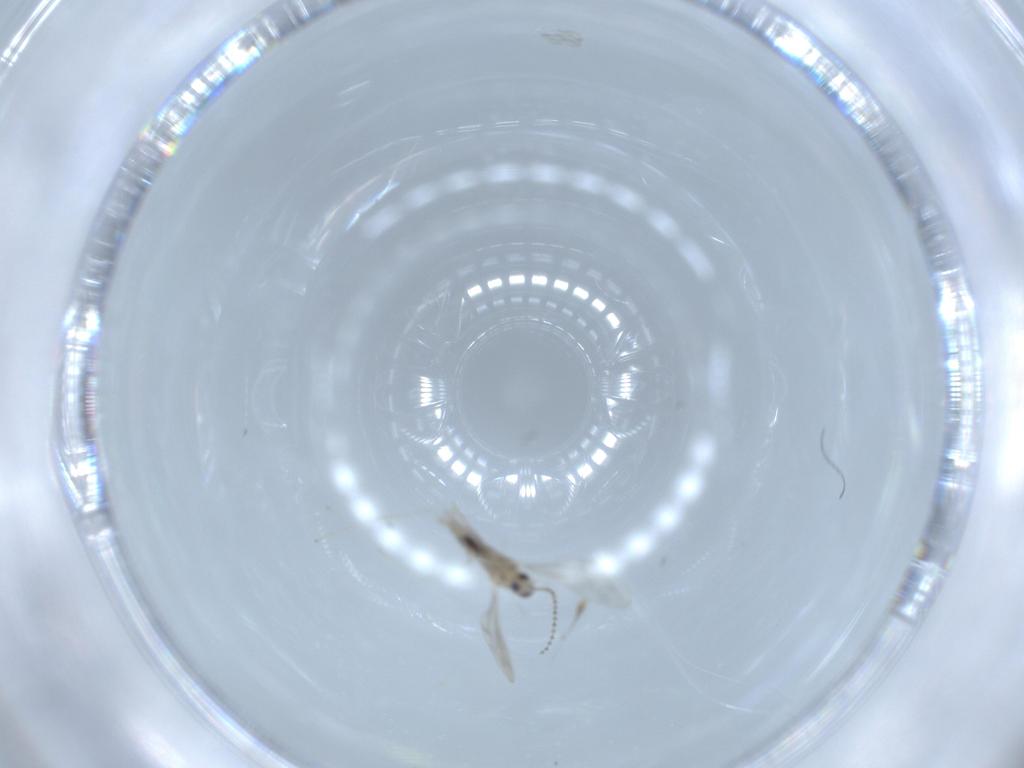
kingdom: Animalia
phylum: Arthropoda
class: Insecta
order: Diptera
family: Cecidomyiidae
